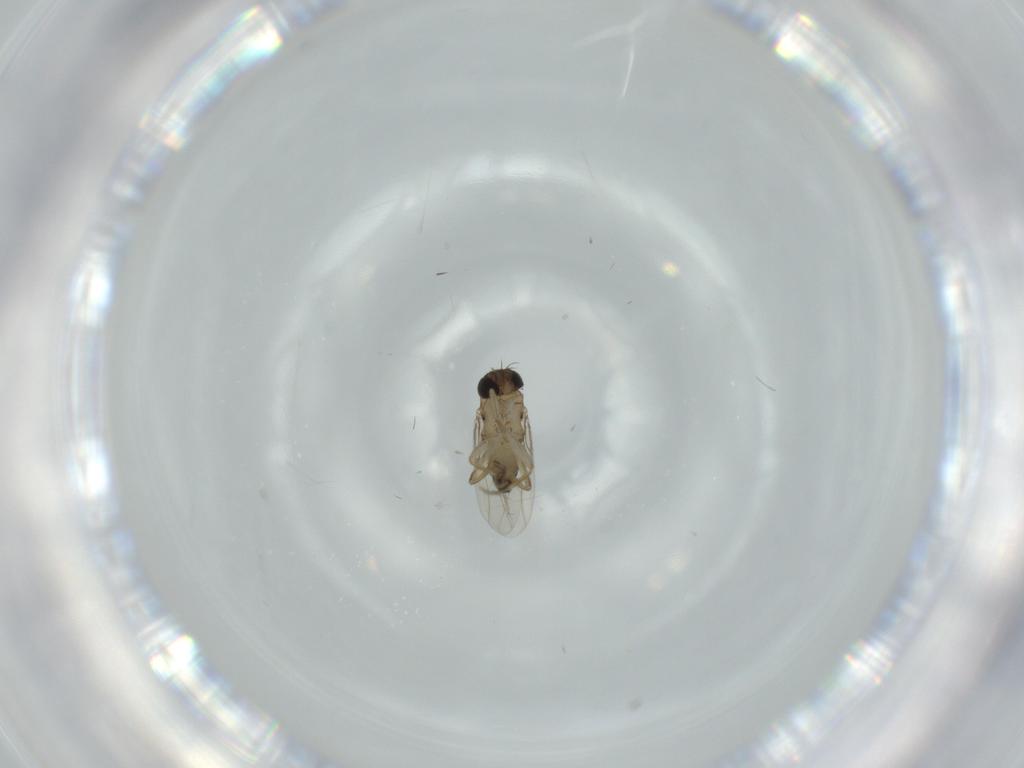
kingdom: Animalia
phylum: Arthropoda
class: Insecta
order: Diptera
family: Phoridae
